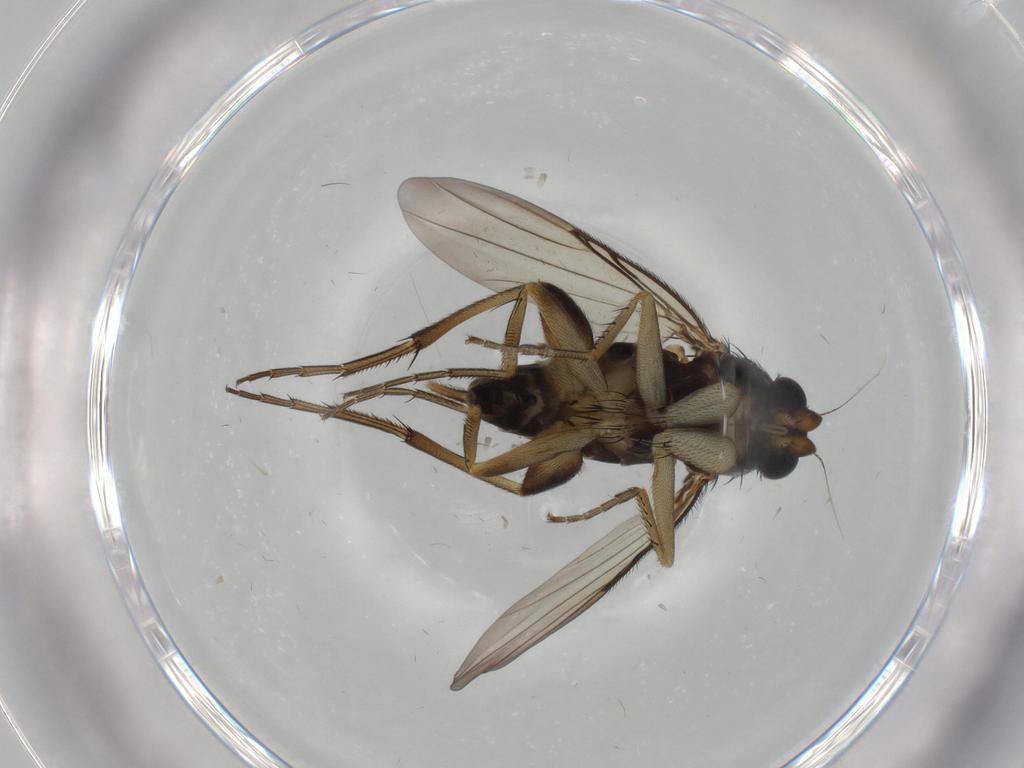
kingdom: Animalia
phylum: Arthropoda
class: Insecta
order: Diptera
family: Phoridae
